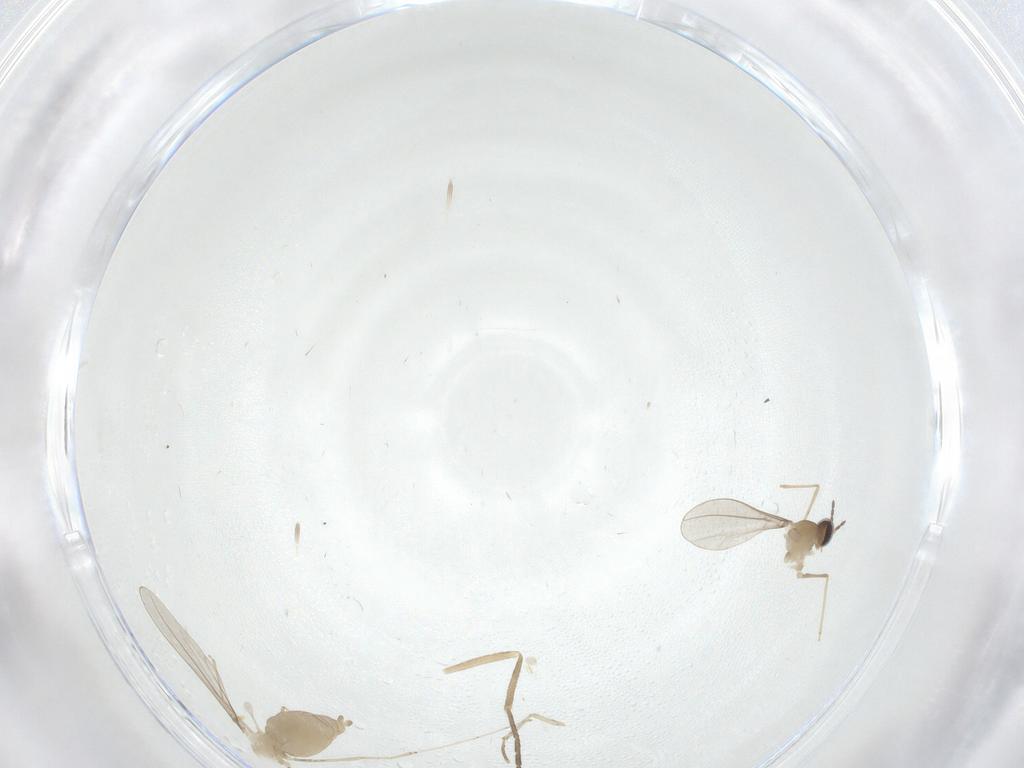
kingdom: Animalia
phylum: Arthropoda
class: Insecta
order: Diptera
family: Cecidomyiidae
